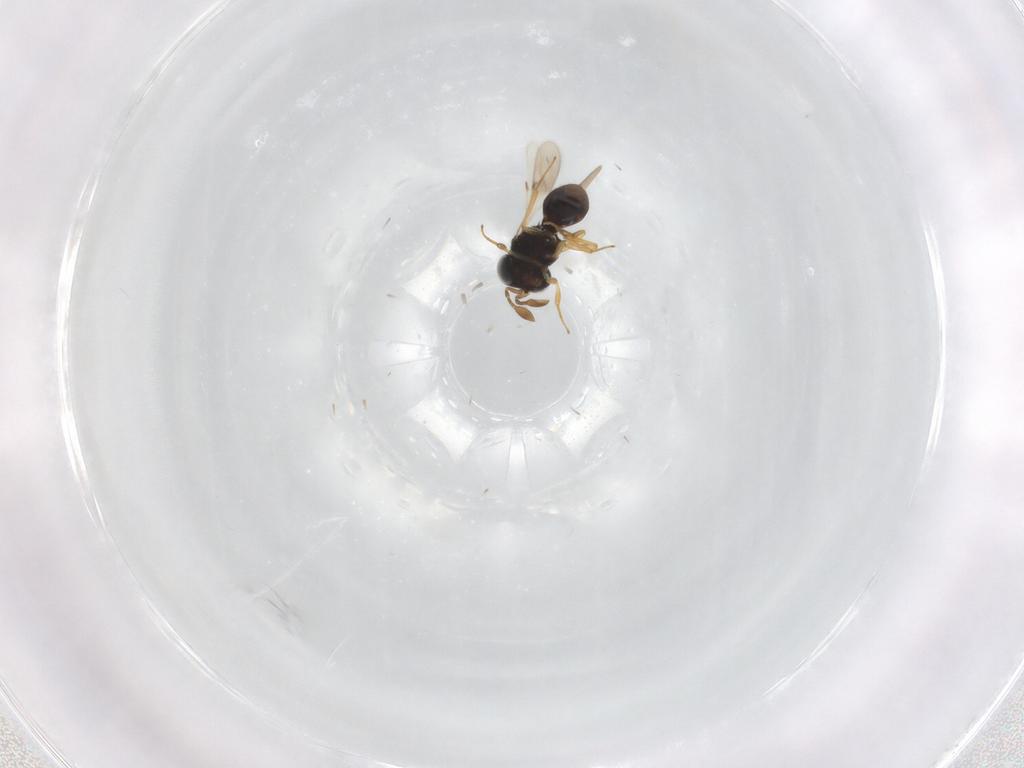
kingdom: Animalia
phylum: Arthropoda
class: Insecta
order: Hymenoptera
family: Scelionidae
